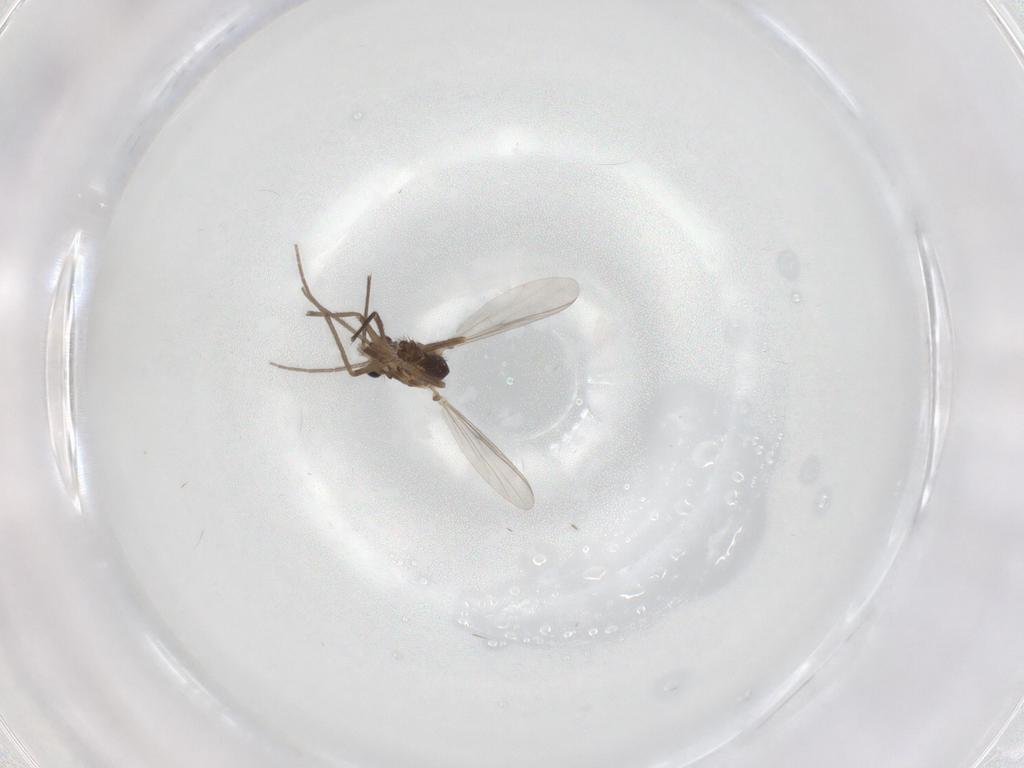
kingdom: Animalia
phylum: Arthropoda
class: Insecta
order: Diptera
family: Chironomidae
